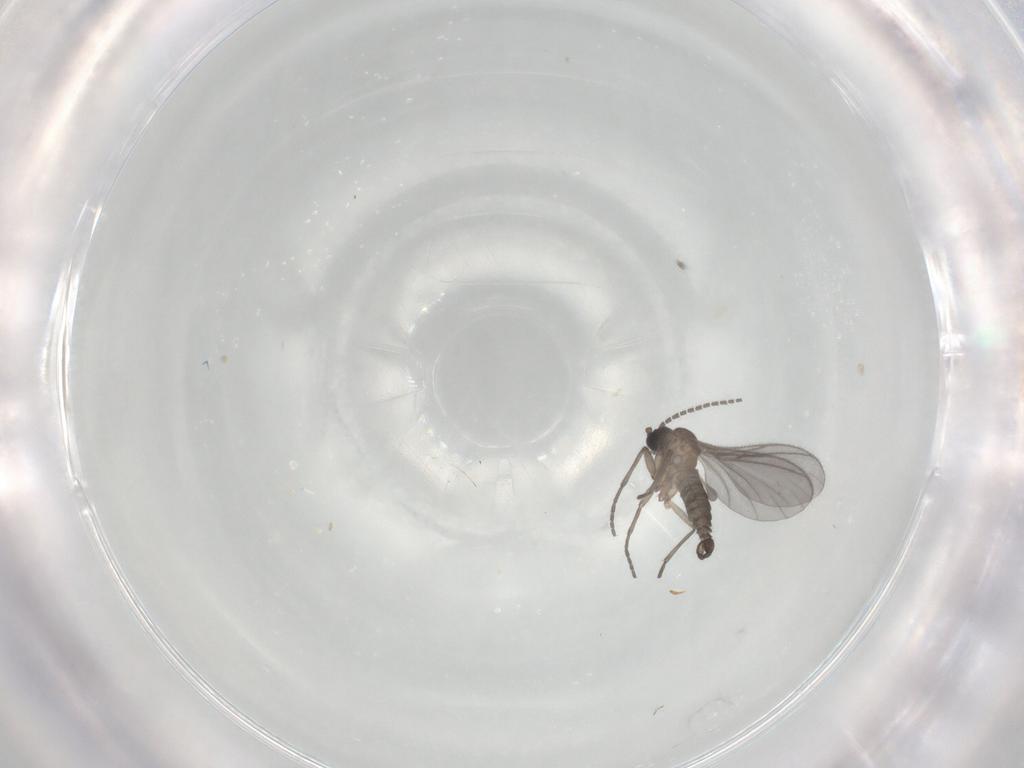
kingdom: Animalia
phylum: Arthropoda
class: Insecta
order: Diptera
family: Sciaridae
